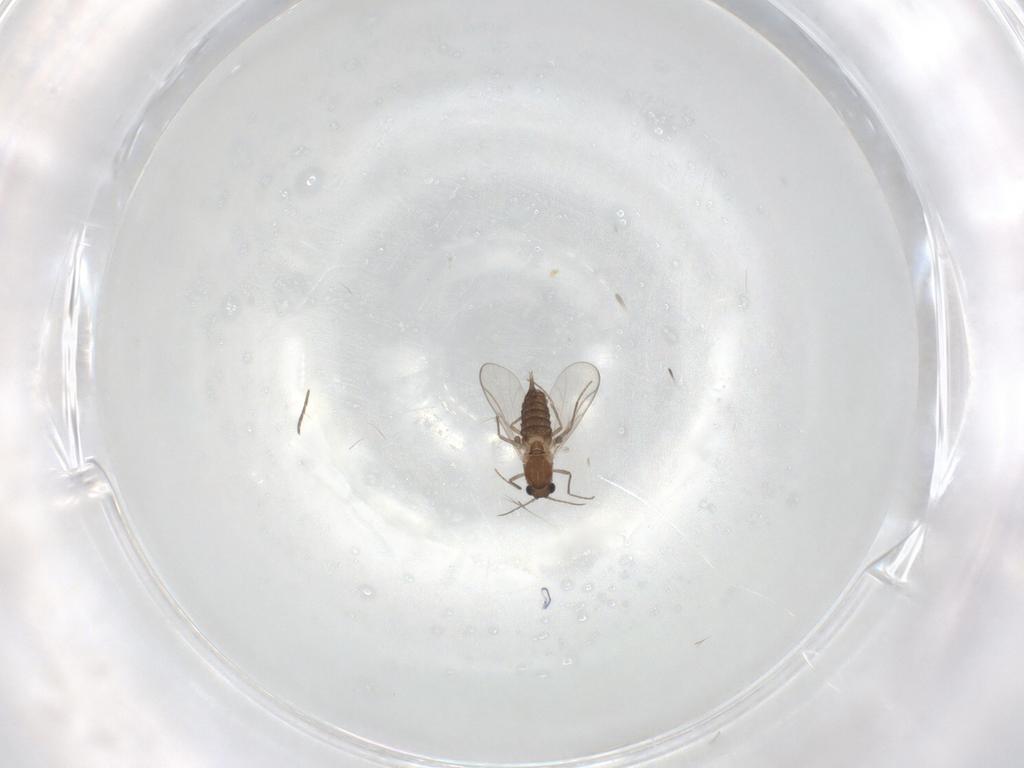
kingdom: Animalia
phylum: Arthropoda
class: Insecta
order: Diptera
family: Chironomidae
